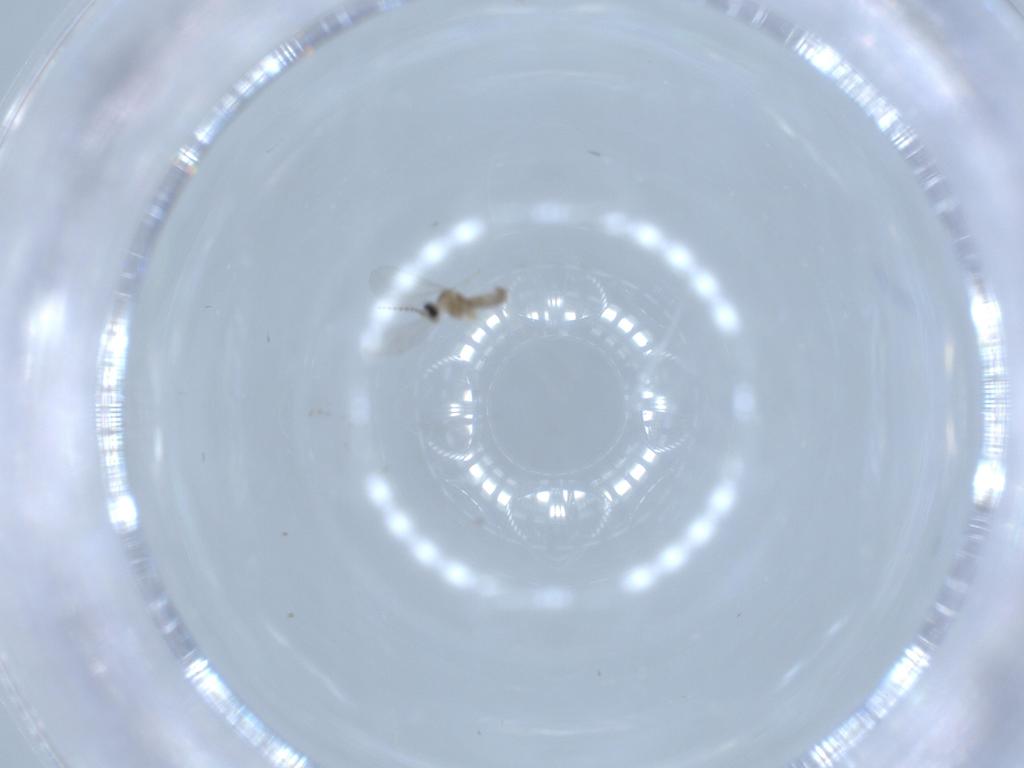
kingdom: Animalia
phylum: Arthropoda
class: Insecta
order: Diptera
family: Cecidomyiidae
